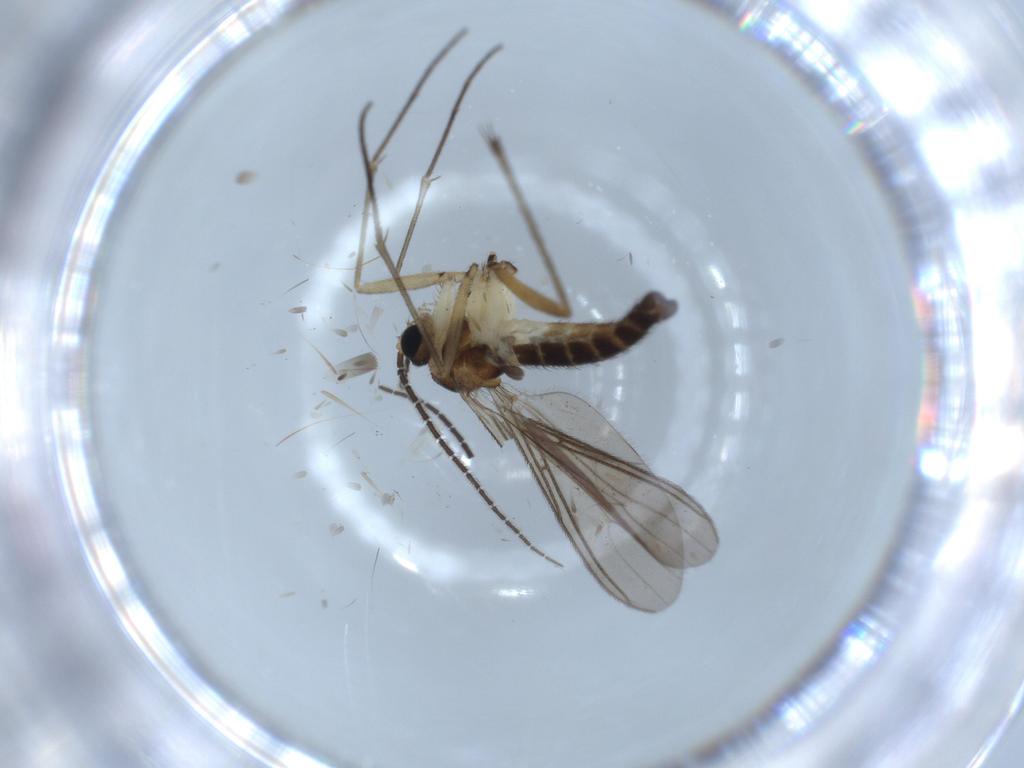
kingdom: Animalia
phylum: Arthropoda
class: Insecta
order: Diptera
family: Sciaridae
